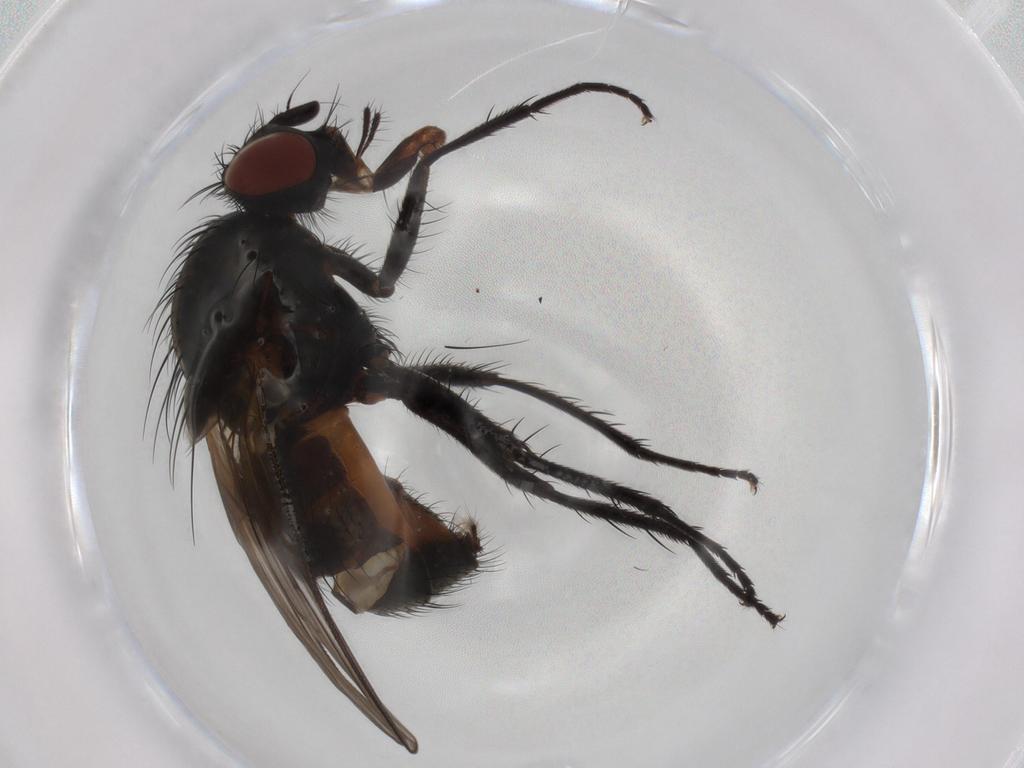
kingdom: Animalia
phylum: Arthropoda
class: Insecta
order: Diptera
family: Anthomyiidae
